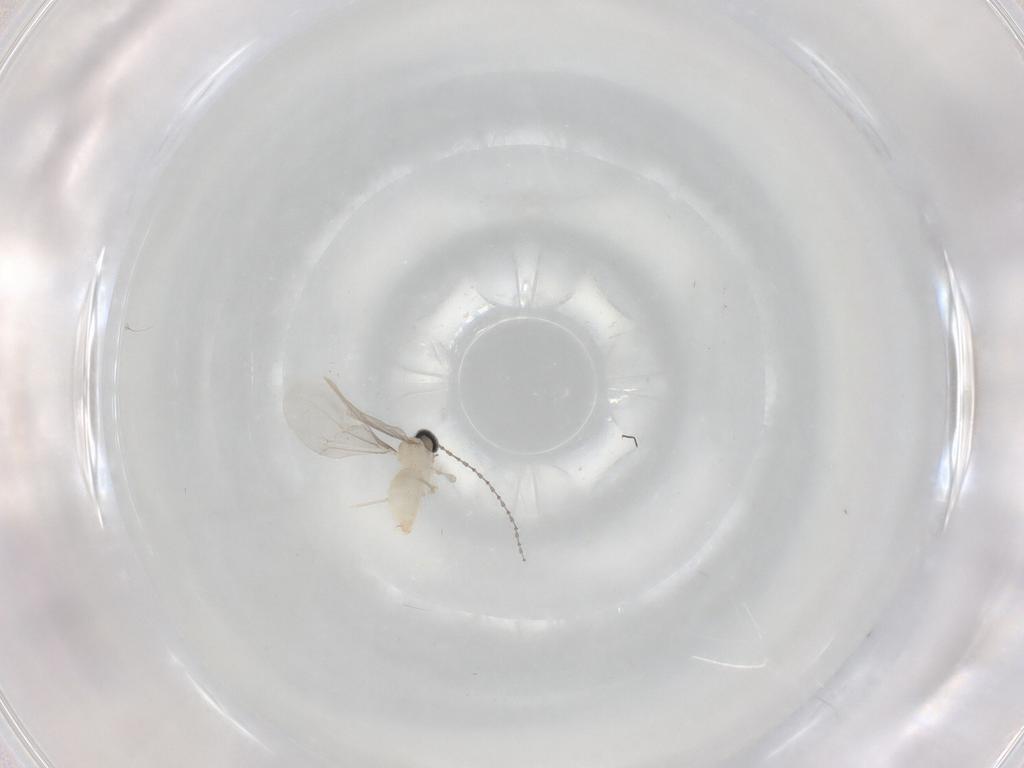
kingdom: Animalia
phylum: Arthropoda
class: Insecta
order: Diptera
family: Cecidomyiidae
